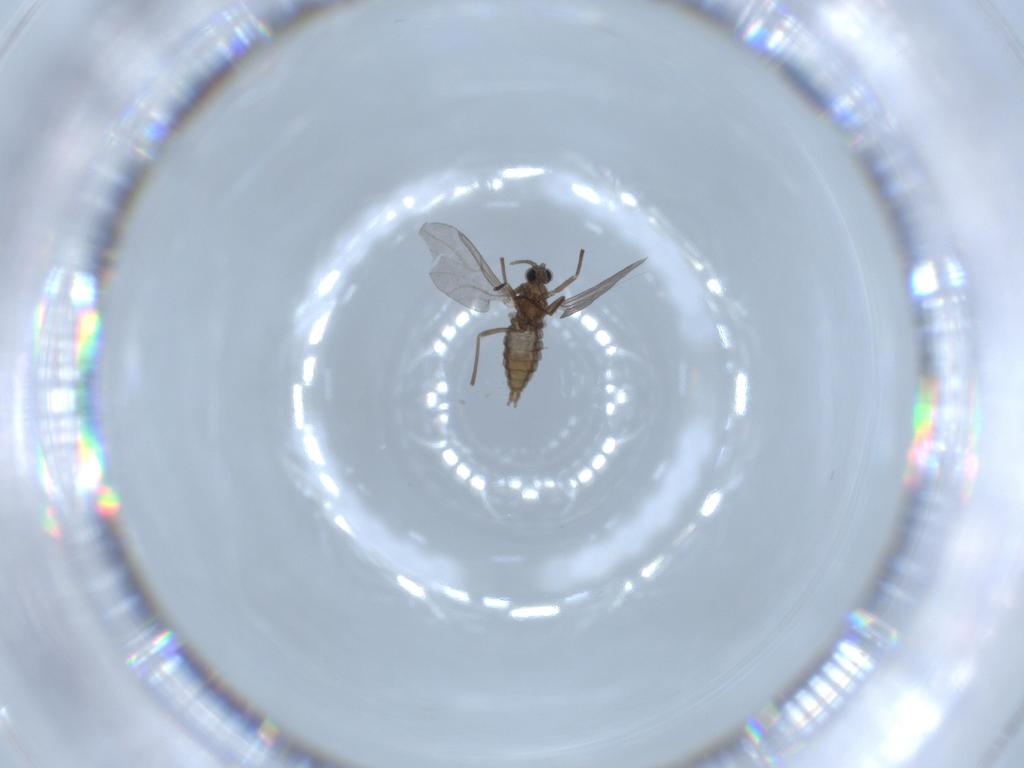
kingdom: Animalia
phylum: Arthropoda
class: Insecta
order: Diptera
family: Cecidomyiidae
